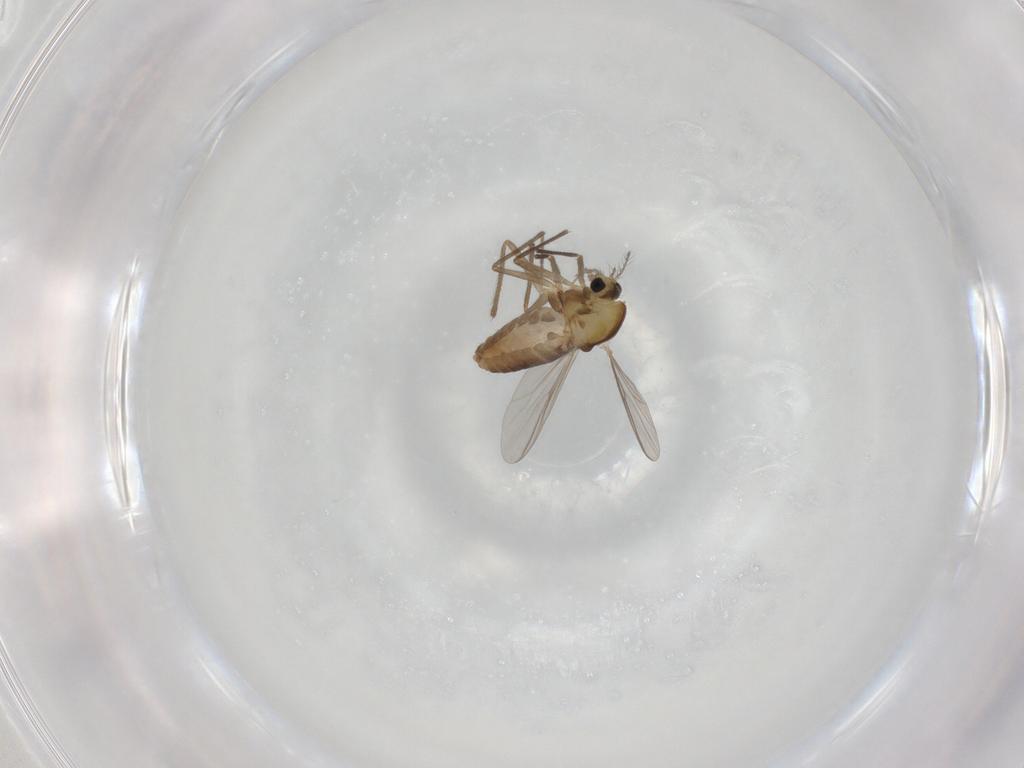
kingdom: Animalia
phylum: Arthropoda
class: Insecta
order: Diptera
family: Chironomidae
